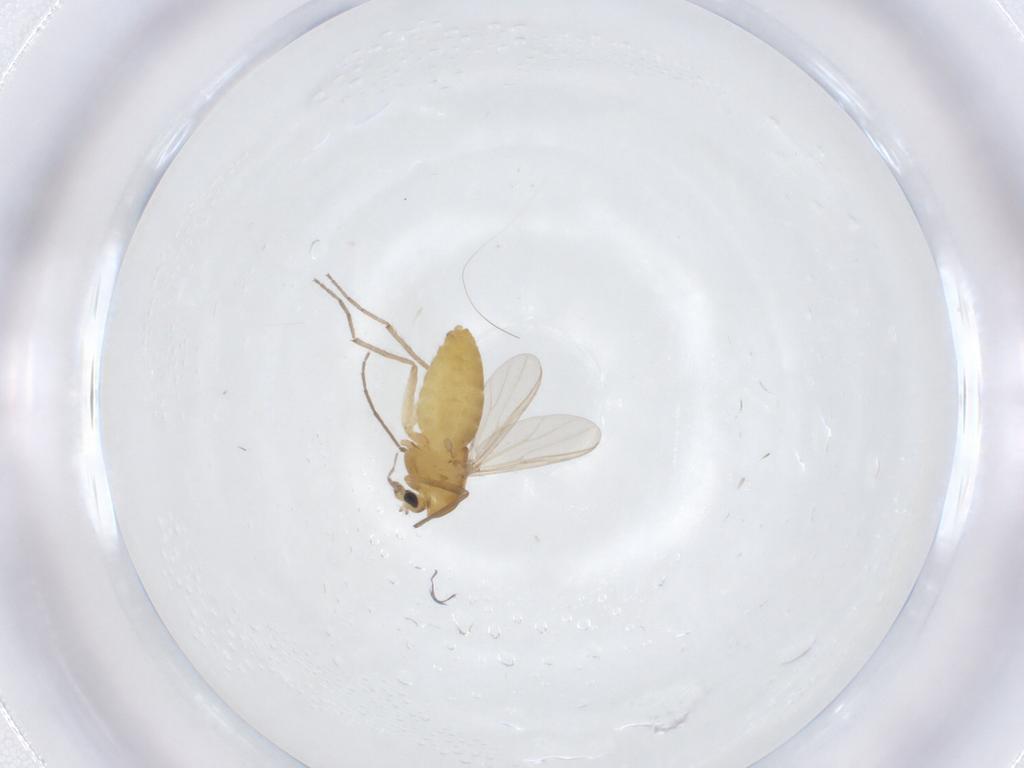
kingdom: Animalia
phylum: Arthropoda
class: Insecta
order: Diptera
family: Chironomidae
